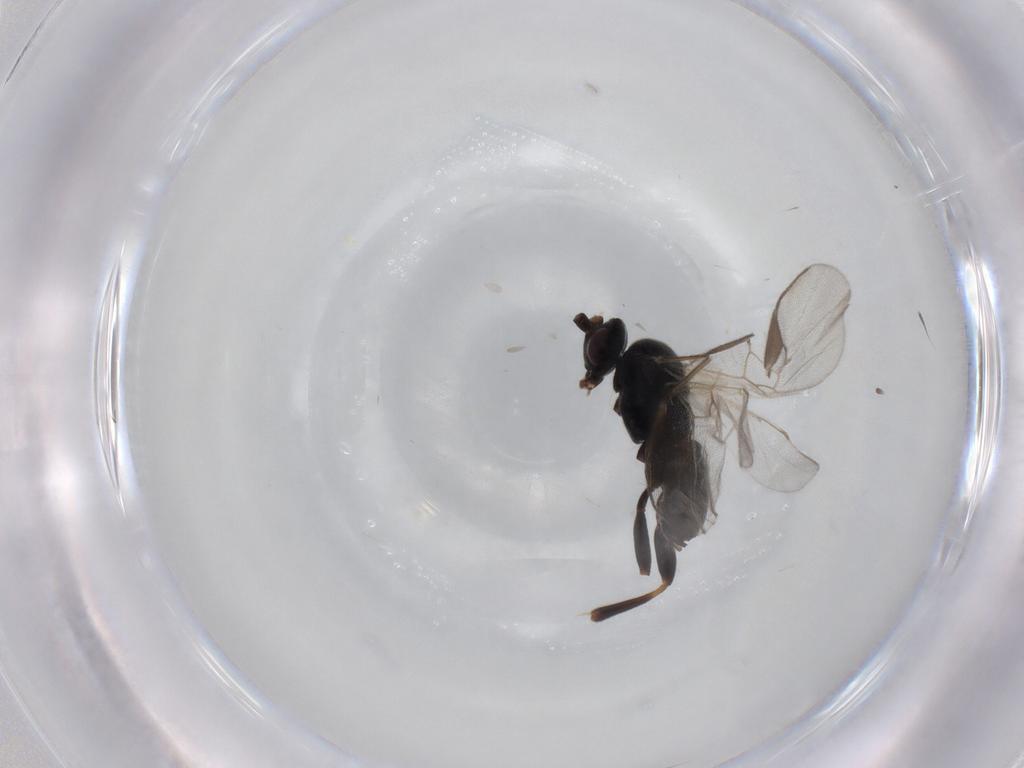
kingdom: Animalia
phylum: Arthropoda
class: Insecta
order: Hymenoptera
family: Braconidae
